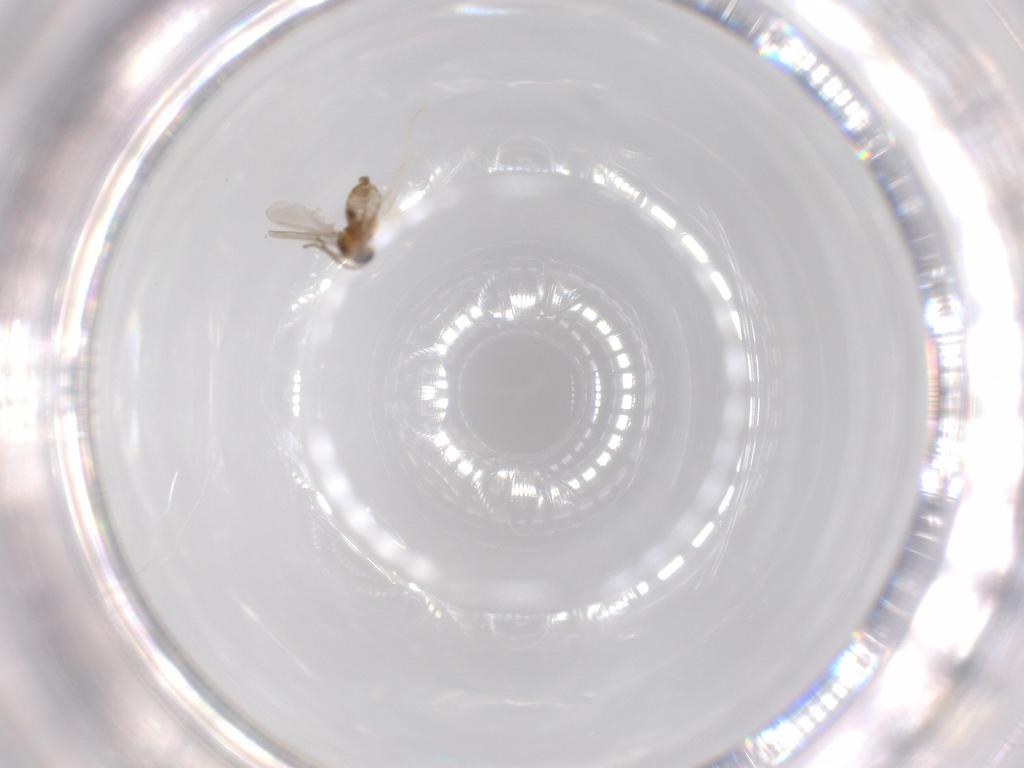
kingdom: Animalia
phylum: Arthropoda
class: Insecta
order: Diptera
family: Cecidomyiidae
